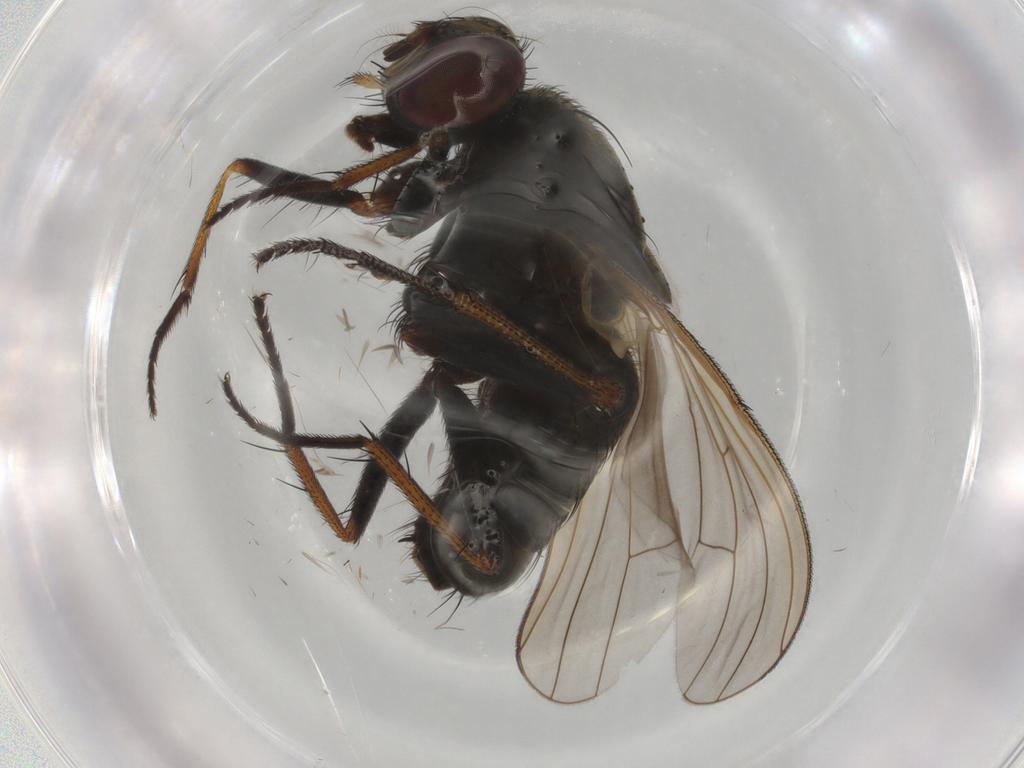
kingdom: Animalia
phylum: Arthropoda
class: Insecta
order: Diptera
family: Muscidae
